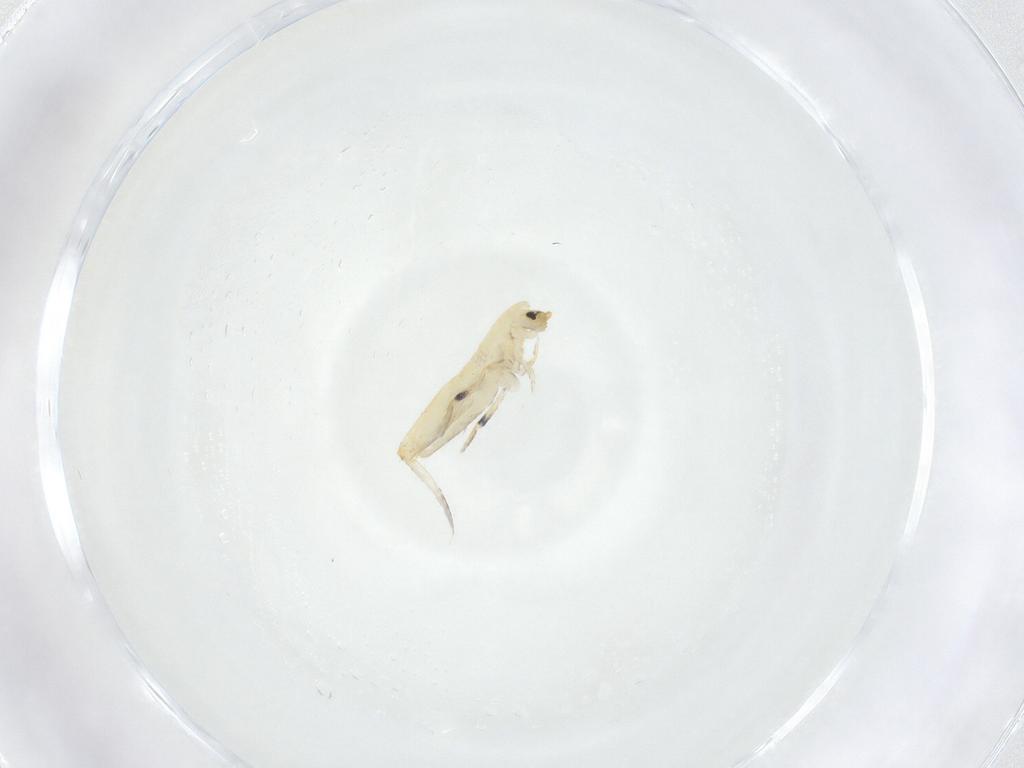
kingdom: Animalia
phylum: Arthropoda
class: Collembola
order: Entomobryomorpha
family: Entomobryidae
